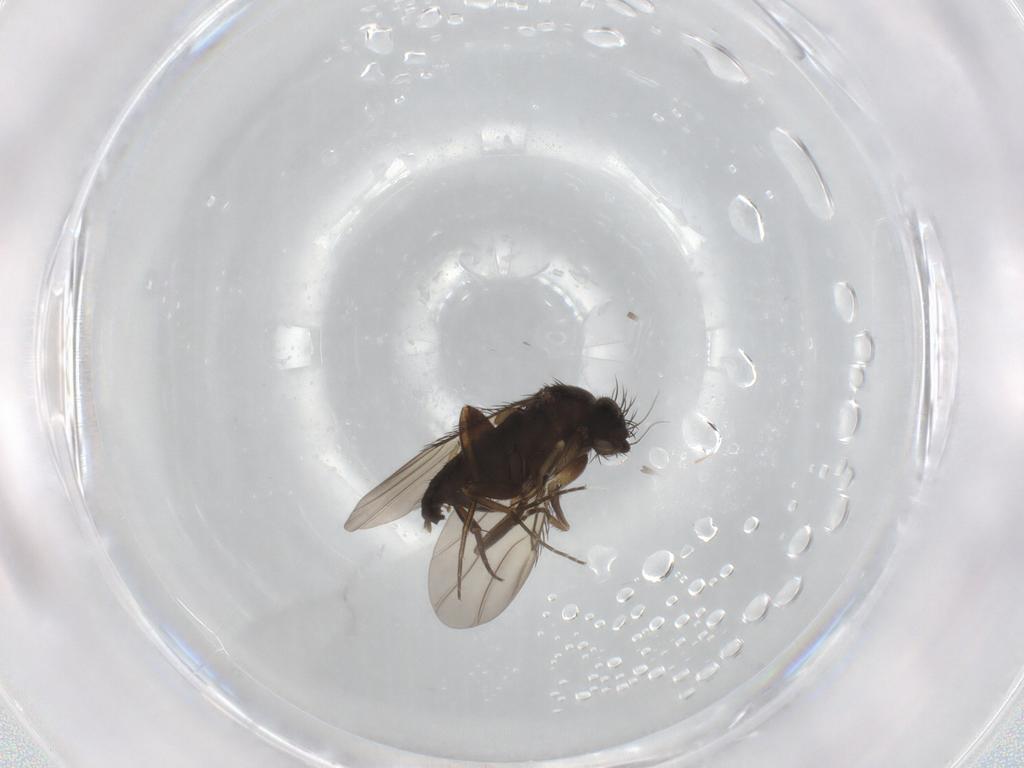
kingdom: Animalia
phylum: Arthropoda
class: Insecta
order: Diptera
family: Phoridae
